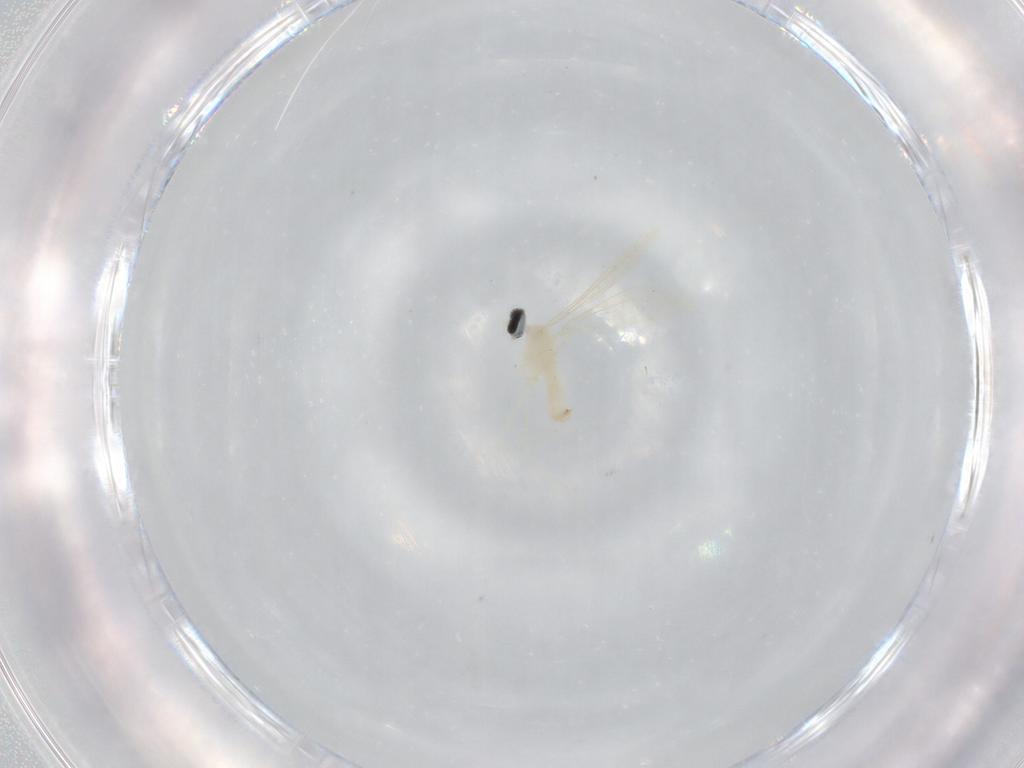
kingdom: Animalia
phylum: Arthropoda
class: Insecta
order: Diptera
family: Cecidomyiidae
